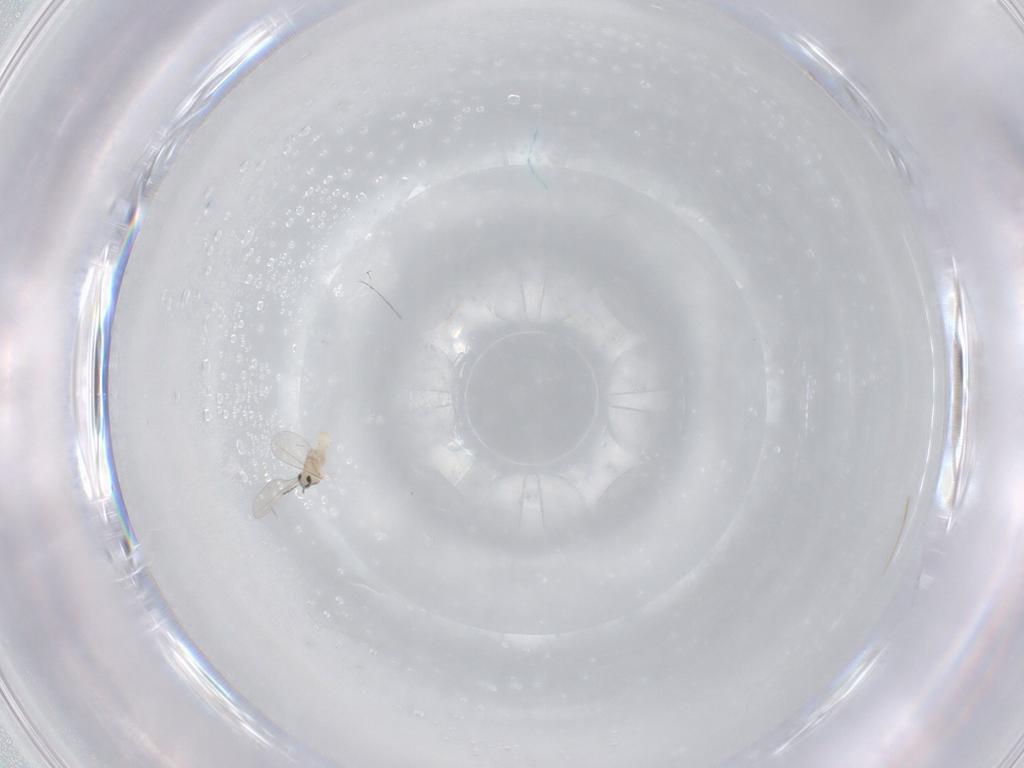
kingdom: Animalia
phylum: Arthropoda
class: Insecta
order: Diptera
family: Cecidomyiidae
